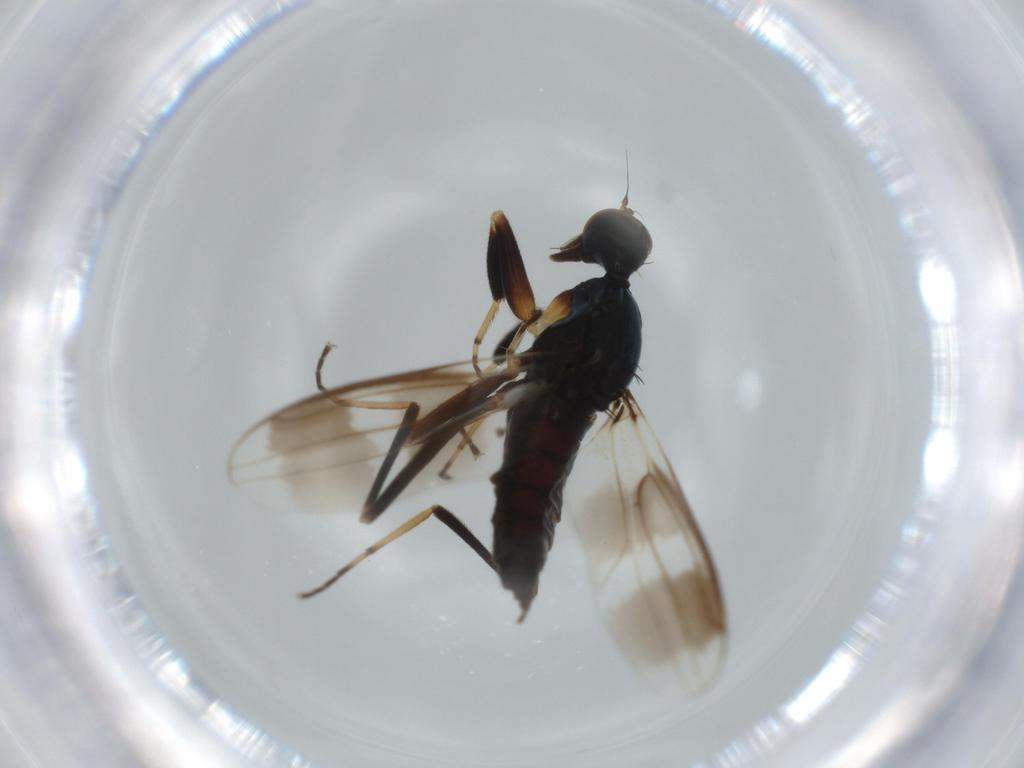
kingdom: Animalia
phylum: Arthropoda
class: Insecta
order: Diptera
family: Hybotidae
